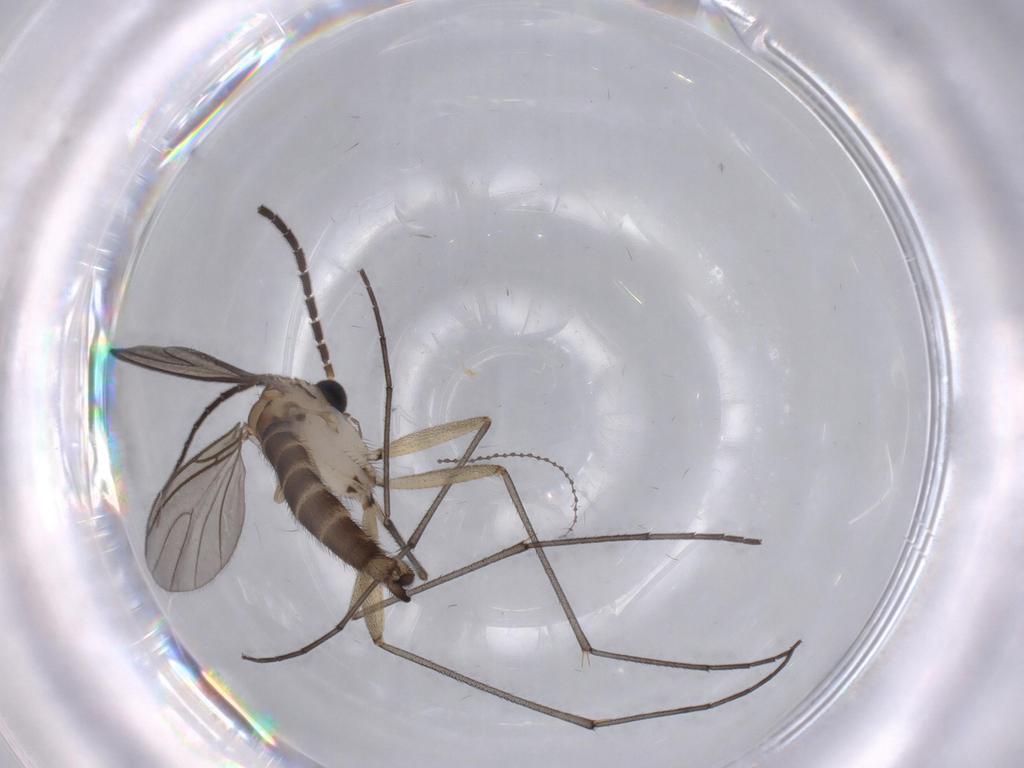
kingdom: Animalia
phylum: Arthropoda
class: Insecta
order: Diptera
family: Sciaridae
